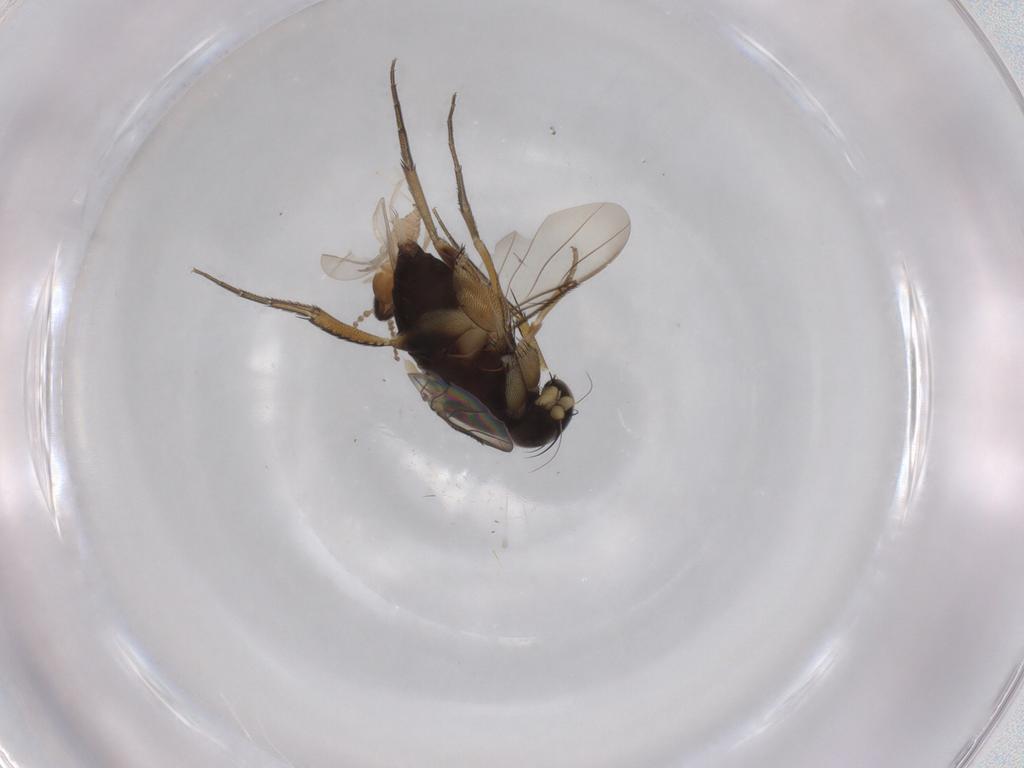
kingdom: Animalia
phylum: Arthropoda
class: Insecta
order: Diptera
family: Phoridae
